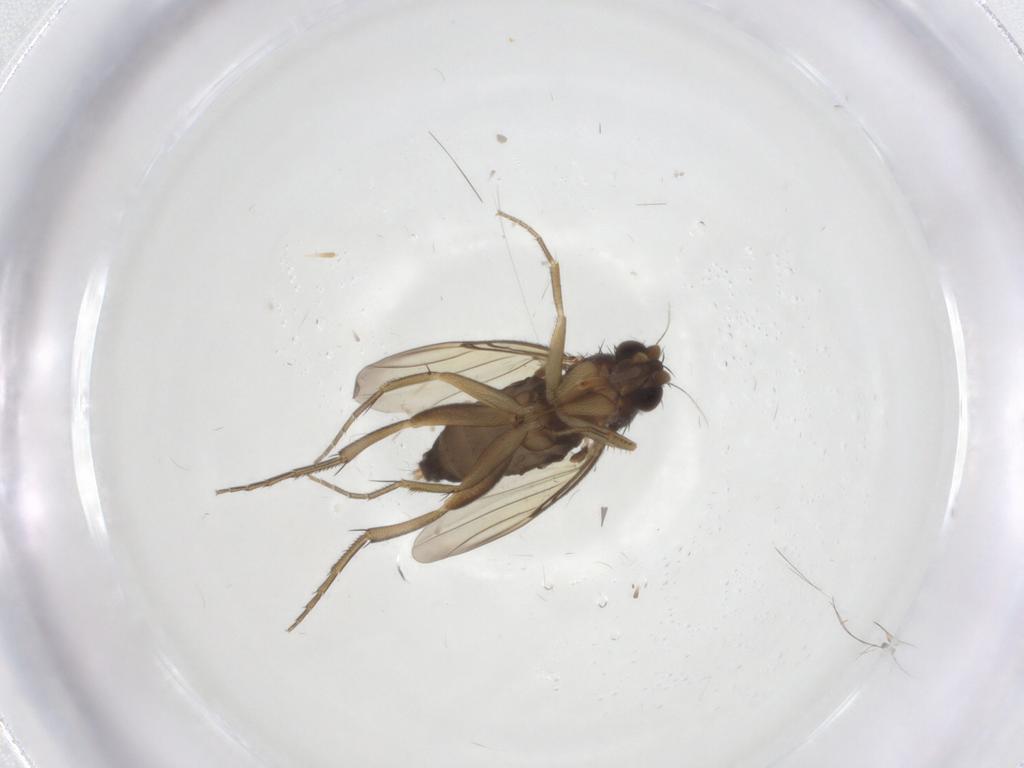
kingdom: Animalia
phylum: Arthropoda
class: Insecta
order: Diptera
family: Phoridae
